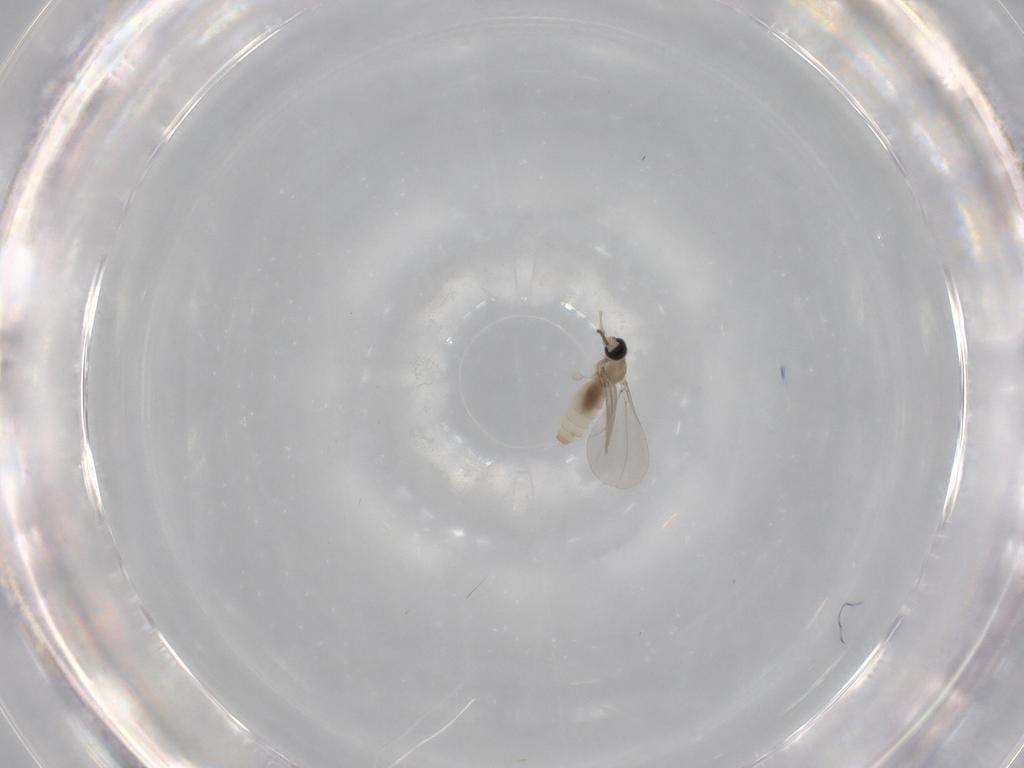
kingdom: Animalia
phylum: Arthropoda
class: Insecta
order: Diptera
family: Cecidomyiidae
